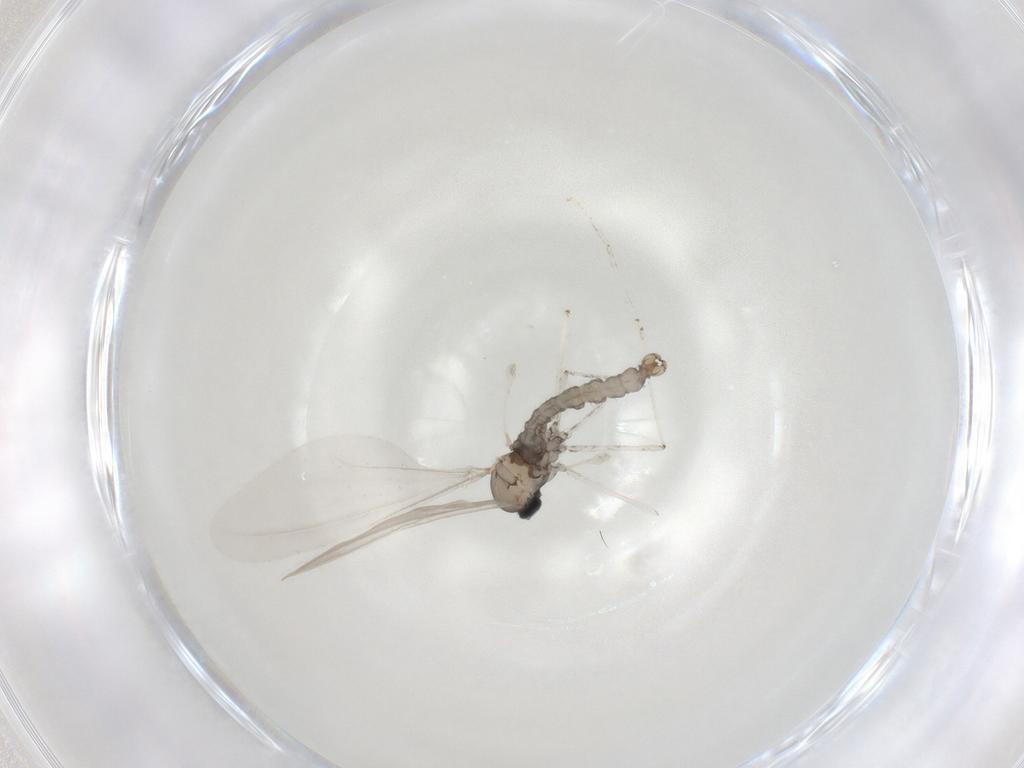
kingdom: Animalia
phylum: Arthropoda
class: Insecta
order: Diptera
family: Cecidomyiidae
